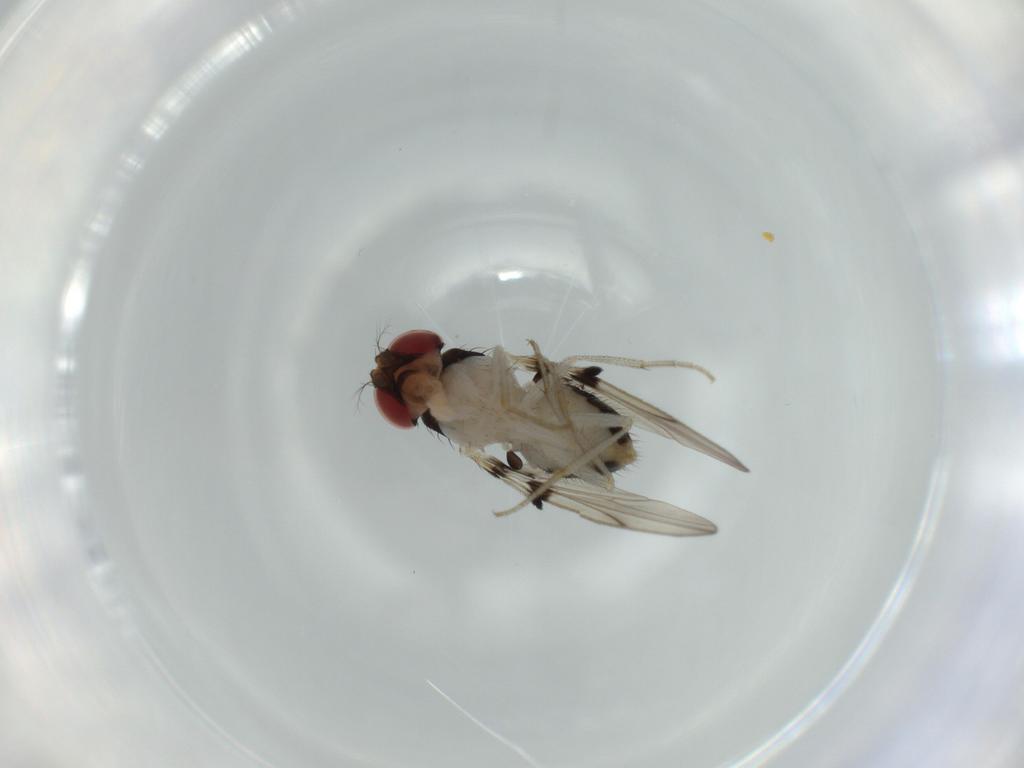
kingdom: Animalia
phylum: Arthropoda
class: Insecta
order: Diptera
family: Drosophilidae
